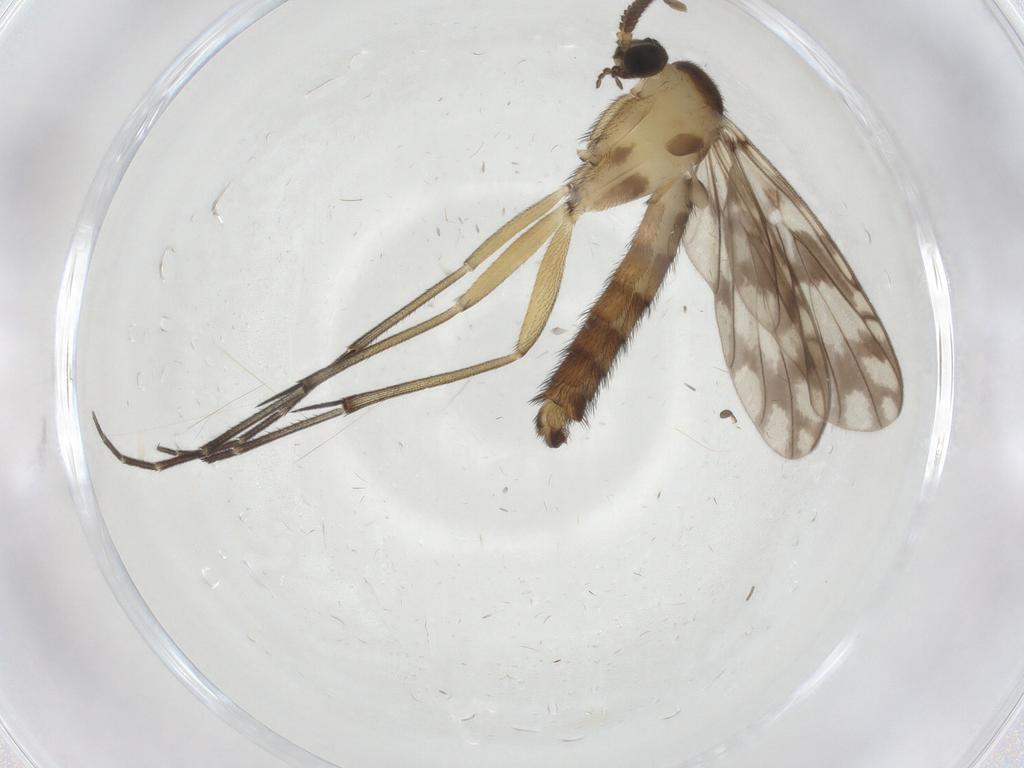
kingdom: Animalia
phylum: Arthropoda
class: Insecta
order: Diptera
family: Keroplatidae
